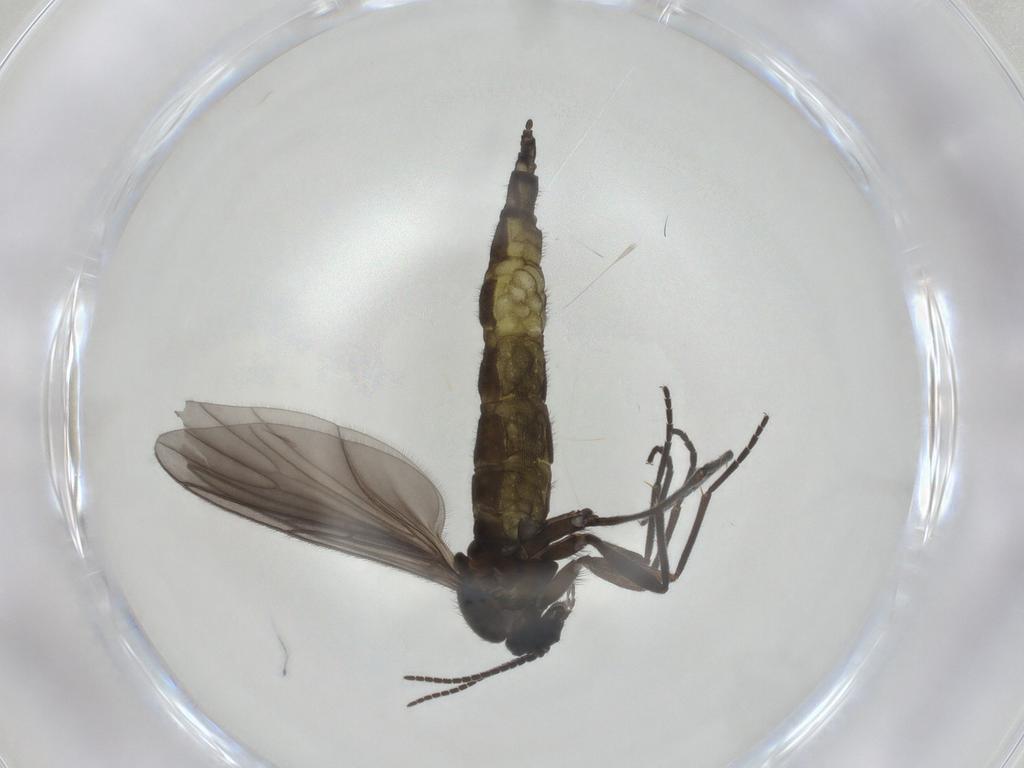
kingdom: Animalia
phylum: Arthropoda
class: Insecta
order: Diptera
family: Sciaridae
